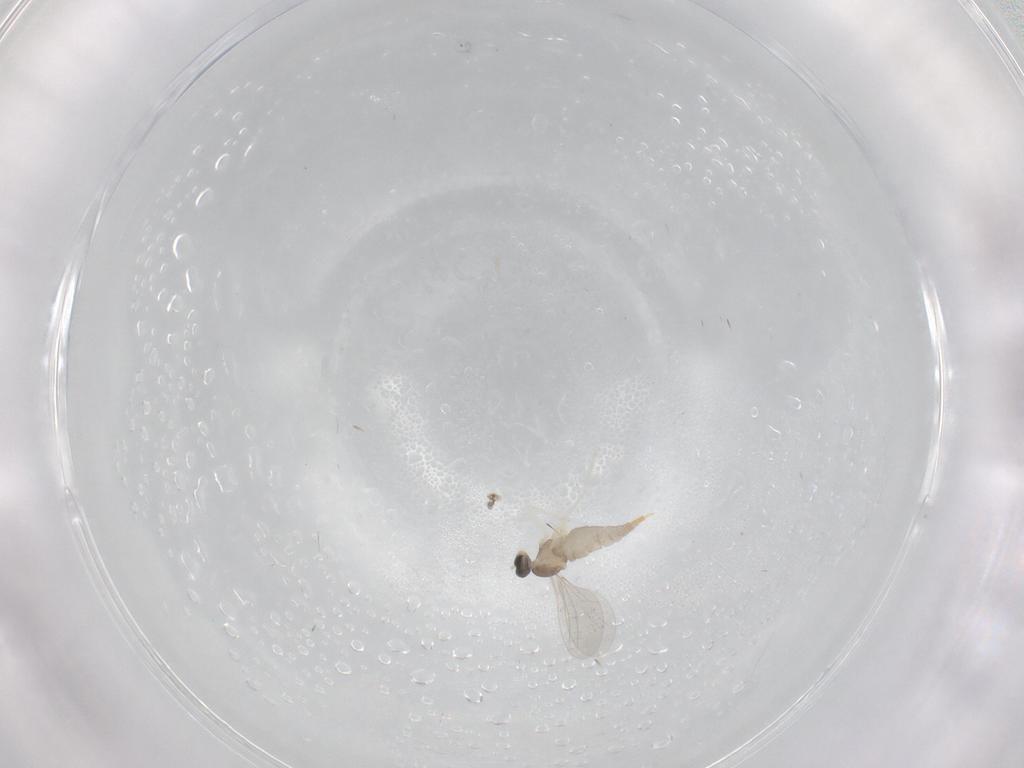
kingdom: Animalia
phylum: Arthropoda
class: Insecta
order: Diptera
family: Cecidomyiidae
